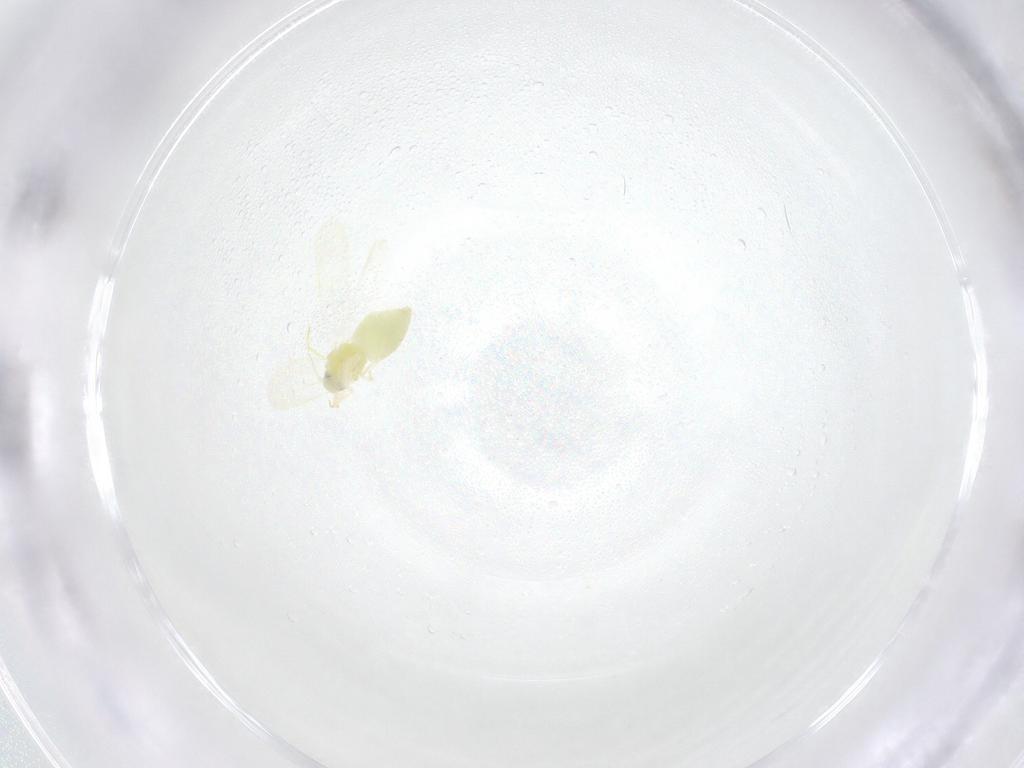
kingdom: Animalia
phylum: Arthropoda
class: Insecta
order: Hemiptera
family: Aleyrodidae
